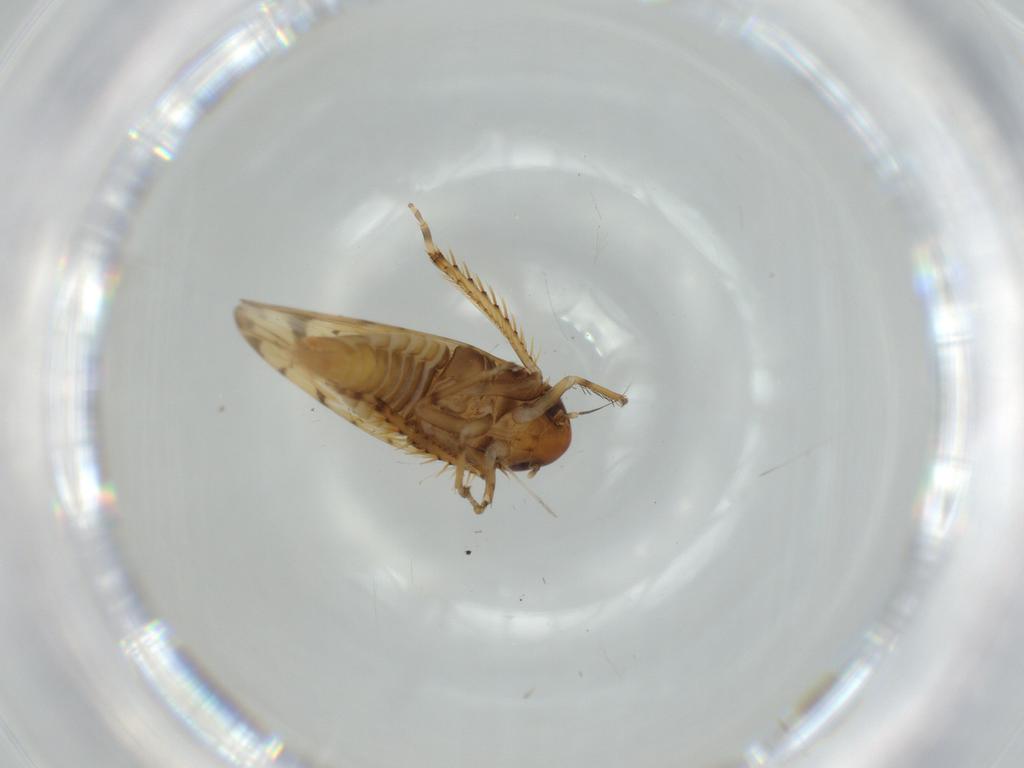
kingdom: Animalia
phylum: Arthropoda
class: Insecta
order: Hemiptera
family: Cicadellidae
